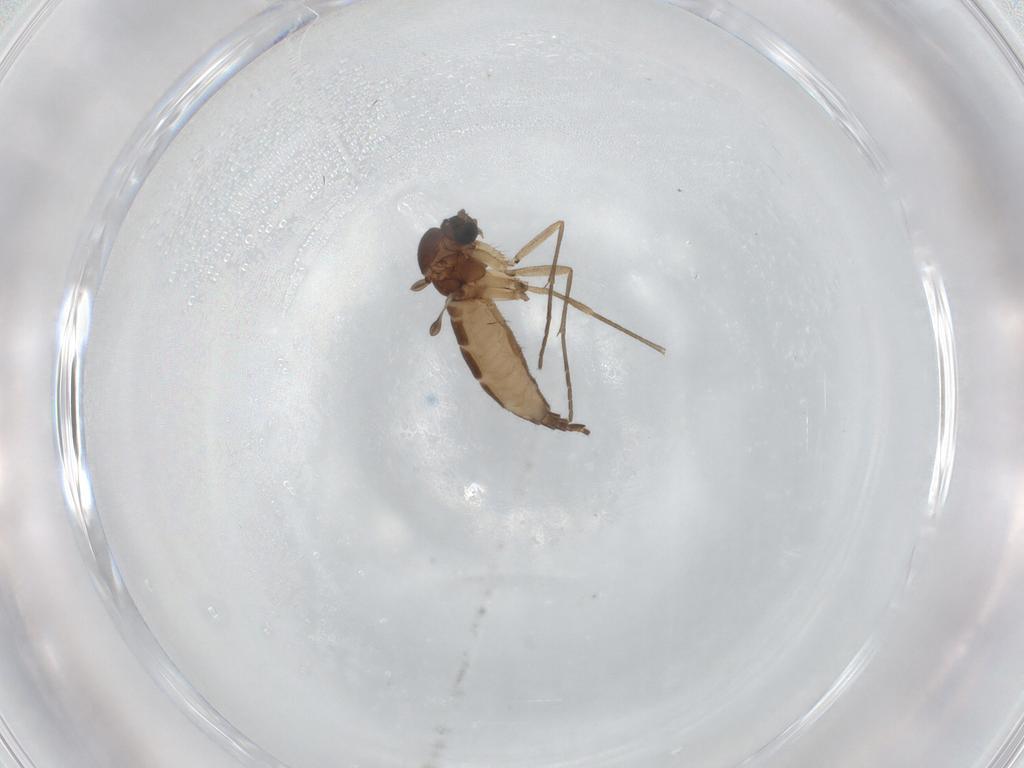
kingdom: Animalia
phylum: Arthropoda
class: Insecta
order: Diptera
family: Sciaridae
